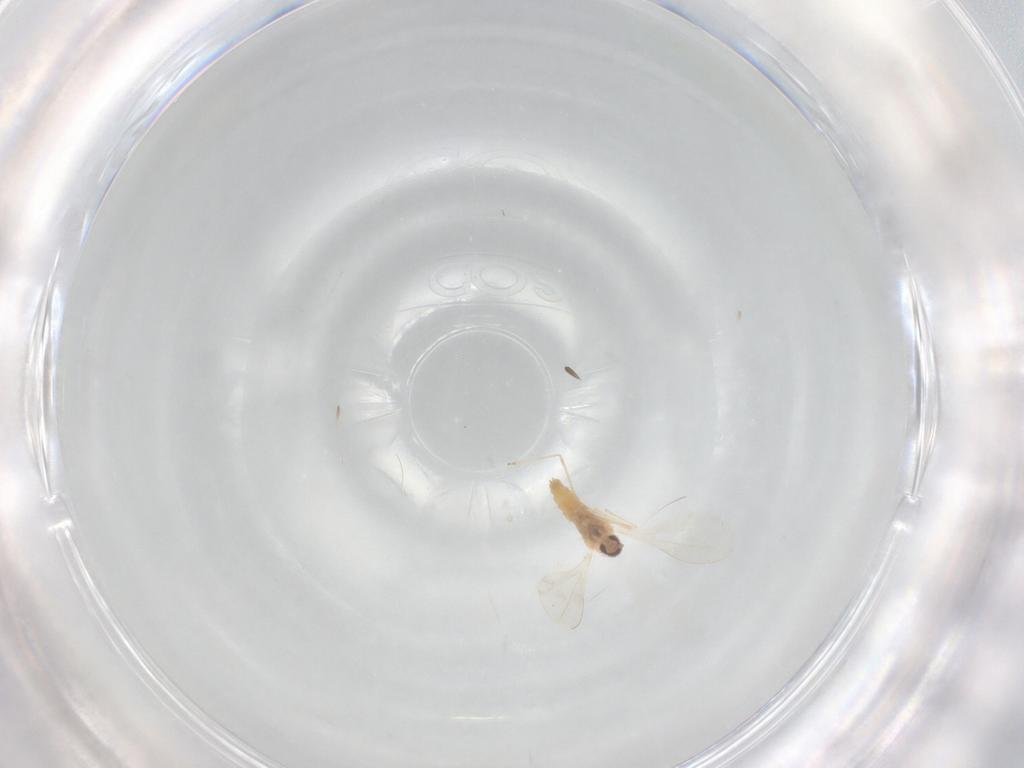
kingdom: Animalia
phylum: Arthropoda
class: Insecta
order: Diptera
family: Cecidomyiidae
